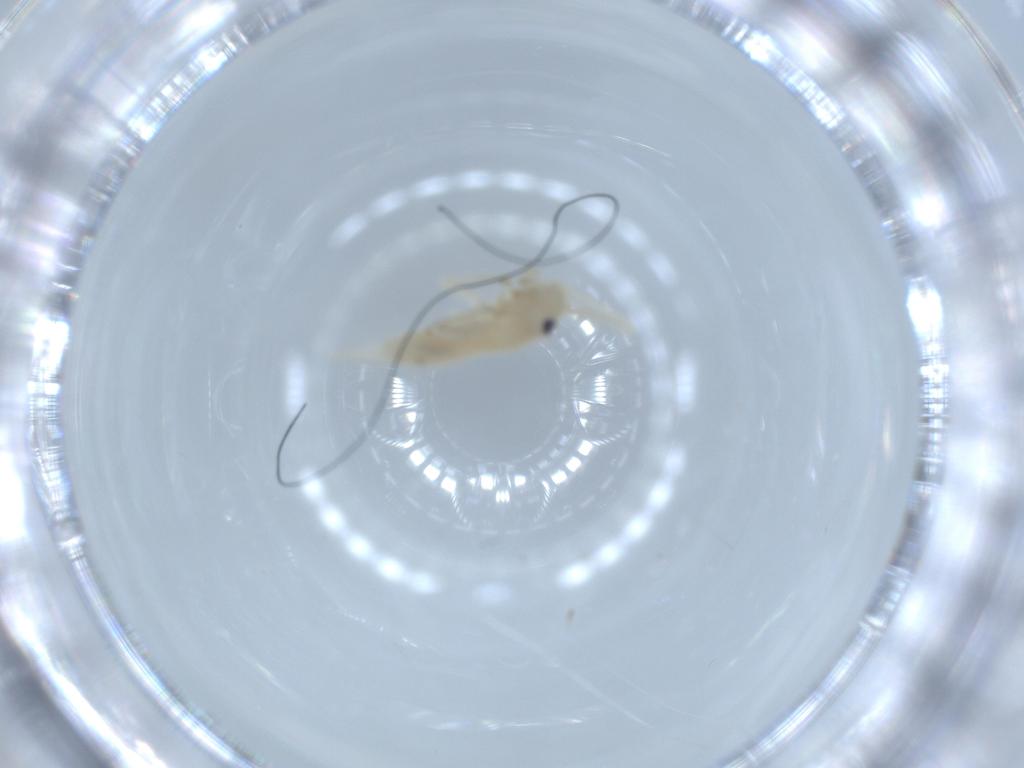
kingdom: Animalia
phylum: Arthropoda
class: Insecta
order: Orthoptera
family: Trigonidiidae
